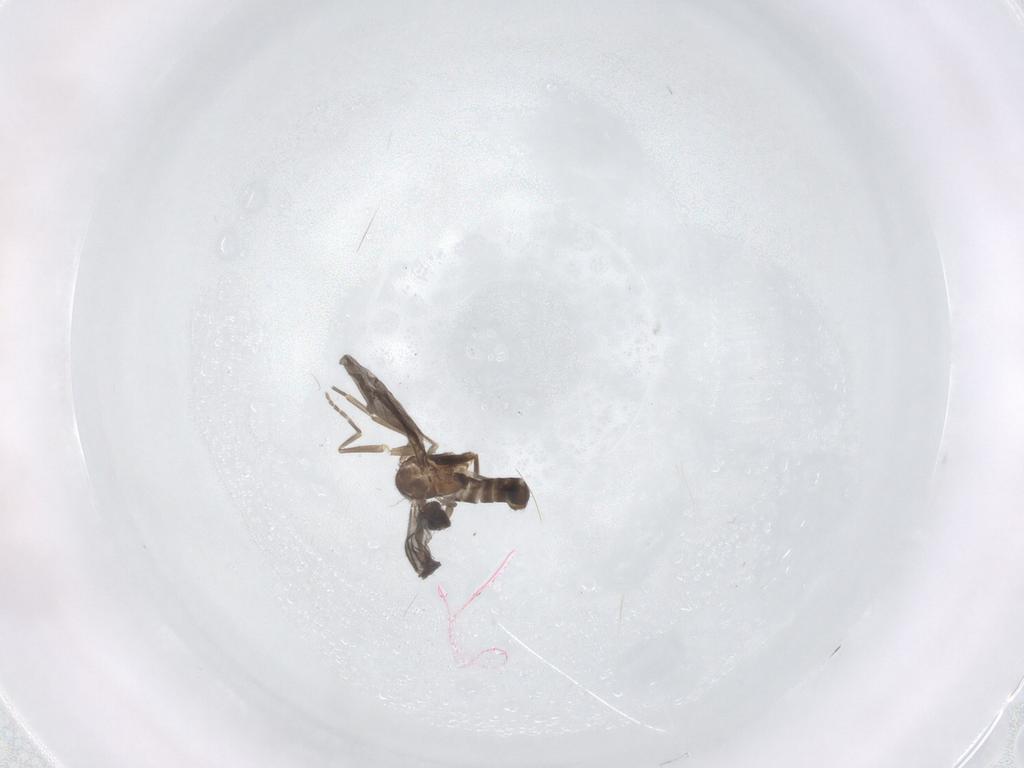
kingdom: Animalia
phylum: Arthropoda
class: Insecta
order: Diptera
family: Phoridae
